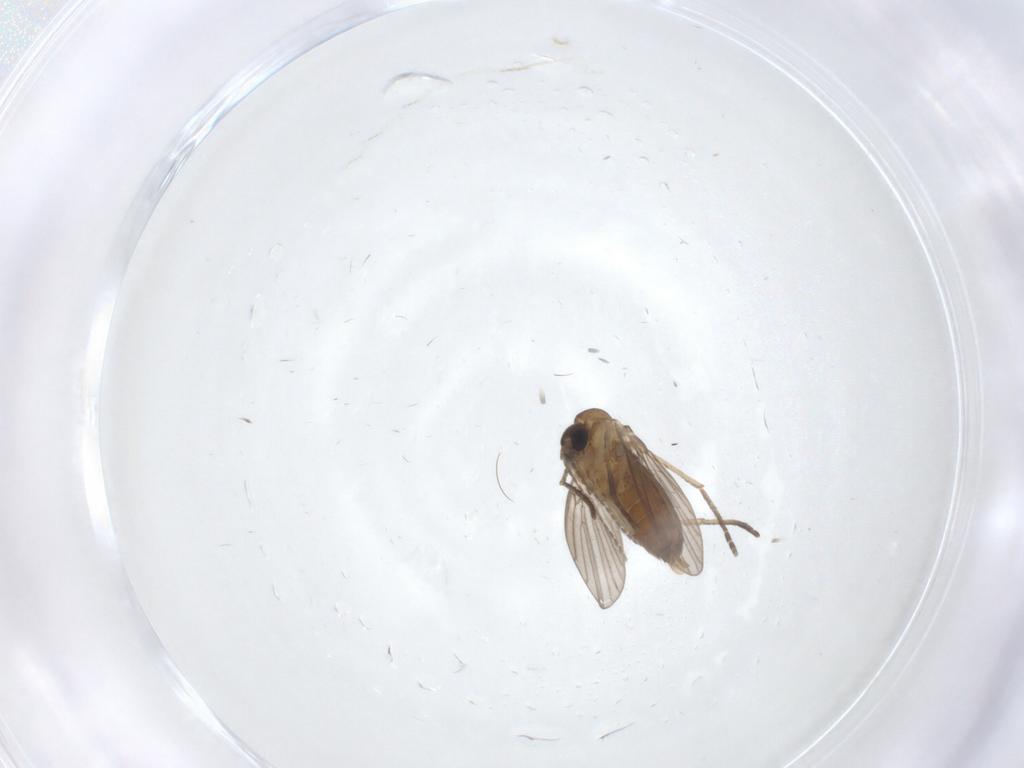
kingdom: Animalia
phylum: Arthropoda
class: Insecta
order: Diptera
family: Cecidomyiidae
